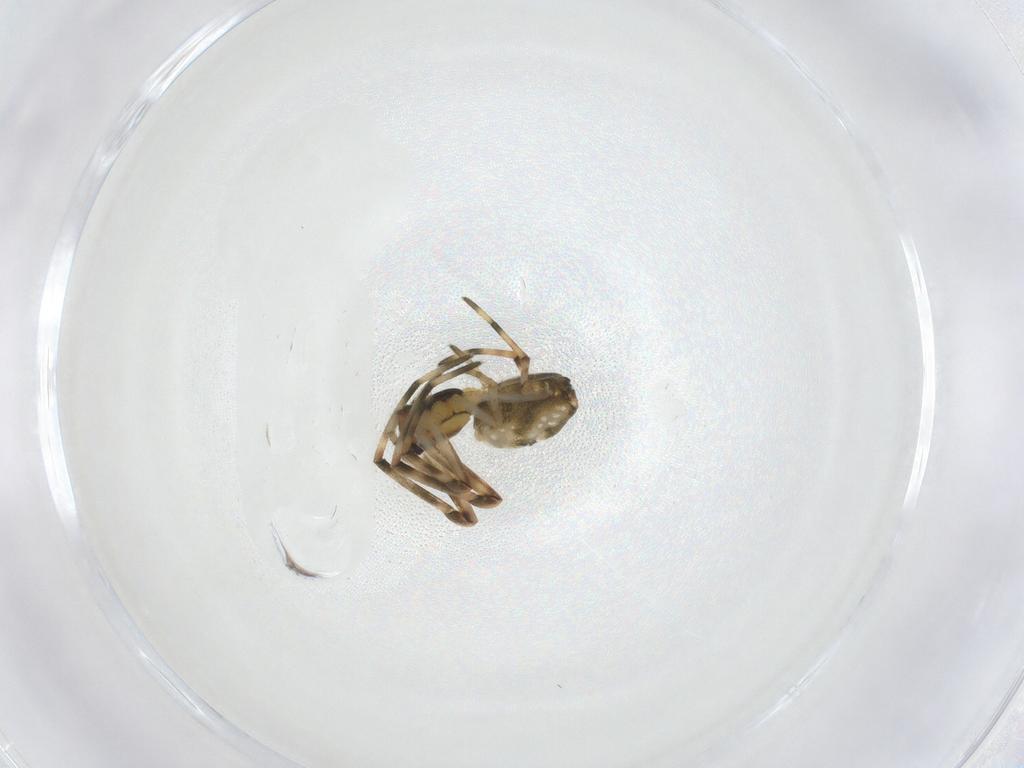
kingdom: Animalia
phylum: Arthropoda
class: Arachnida
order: Araneae
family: Tetragnathidae
